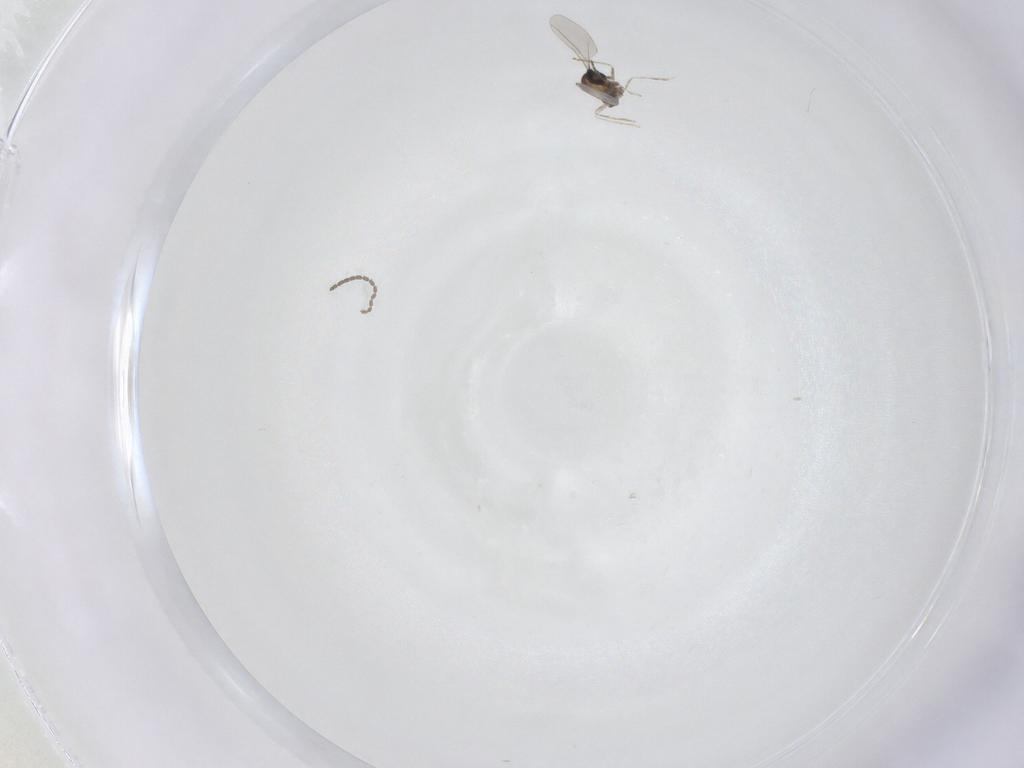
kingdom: Animalia
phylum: Arthropoda
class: Insecta
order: Diptera
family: Cecidomyiidae
